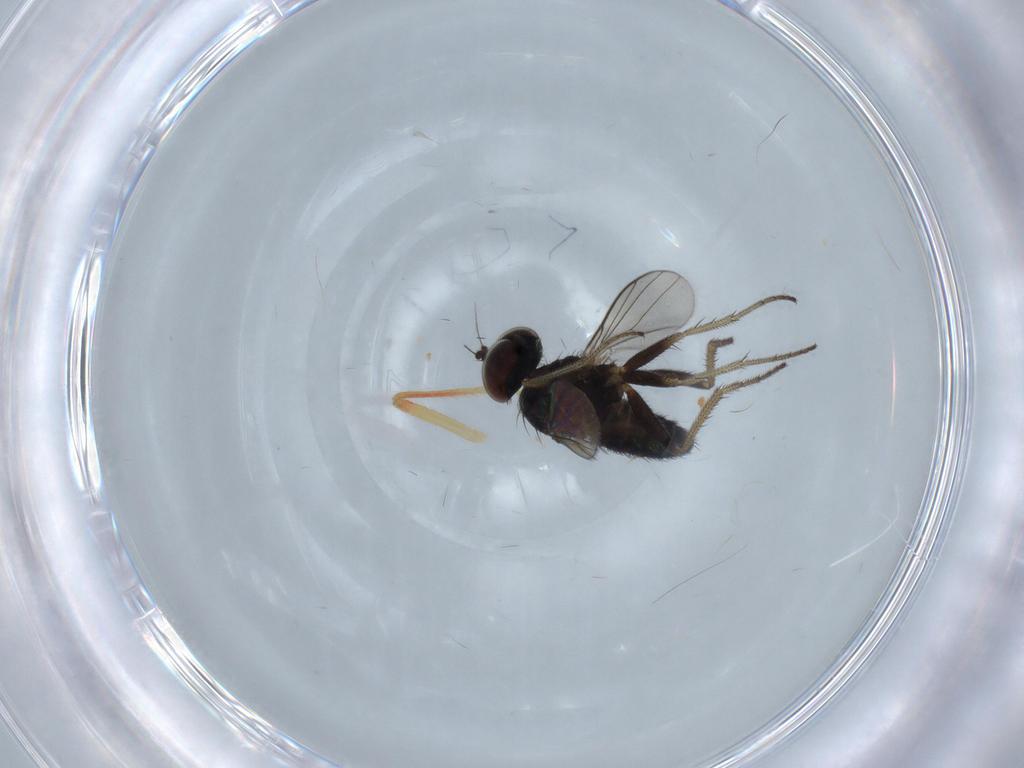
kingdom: Animalia
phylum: Arthropoda
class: Insecta
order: Diptera
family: Dolichopodidae
